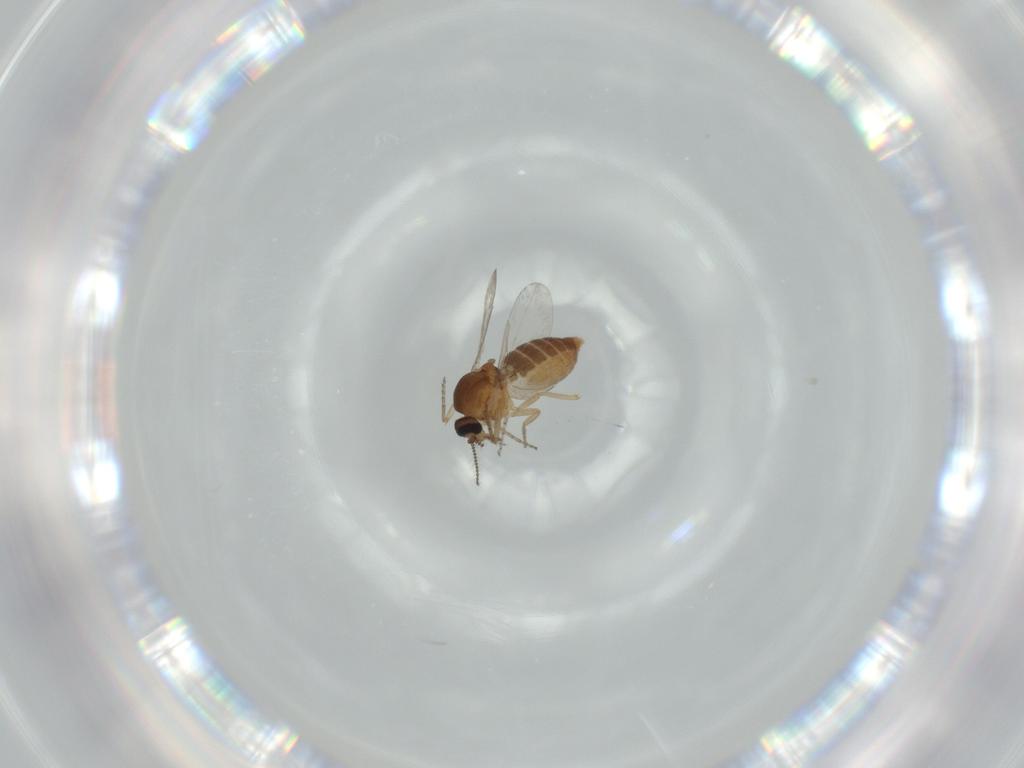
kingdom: Animalia
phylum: Arthropoda
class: Insecta
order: Diptera
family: Ceratopogonidae
